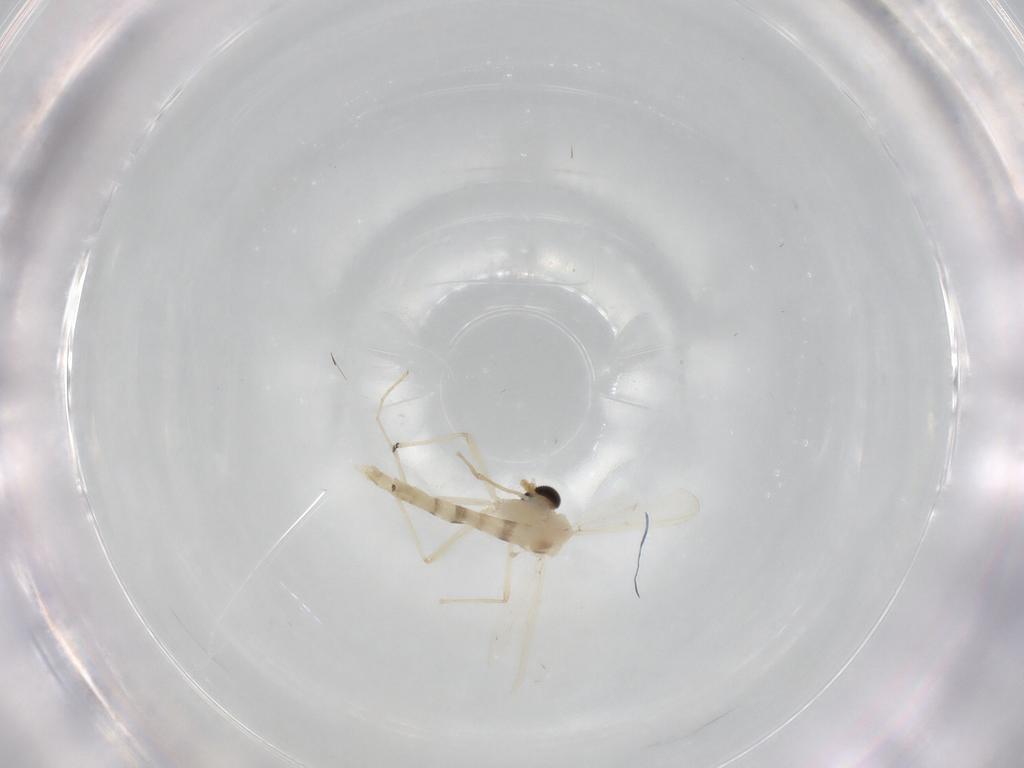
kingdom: Animalia
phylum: Arthropoda
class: Insecta
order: Diptera
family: Chironomidae
